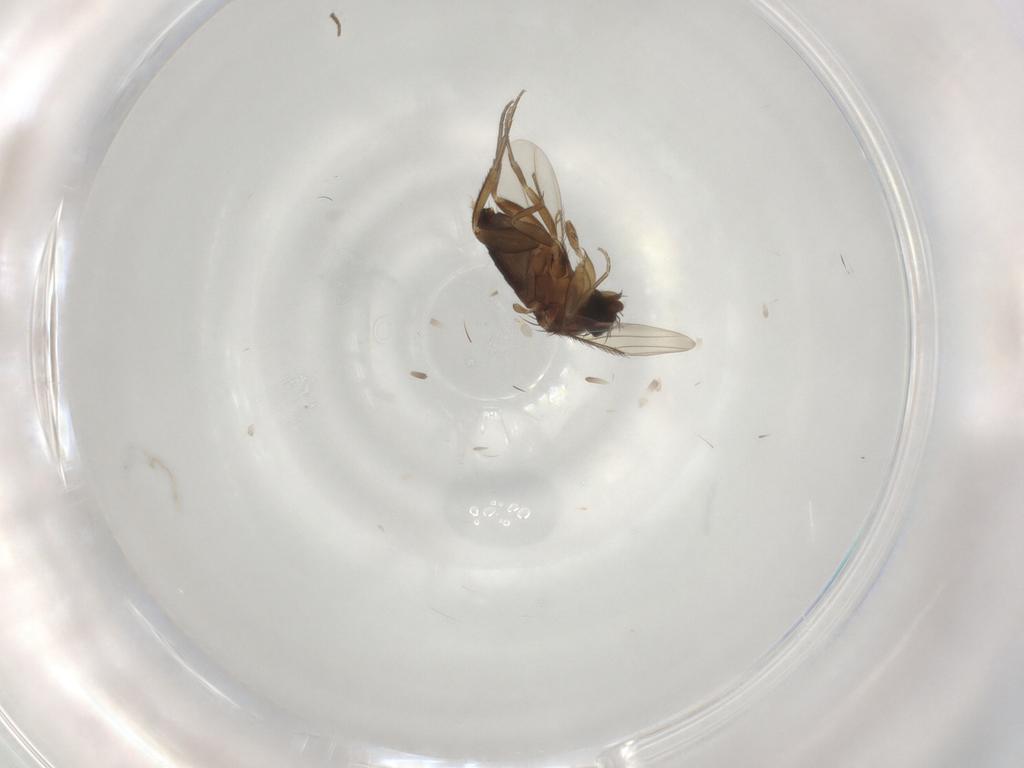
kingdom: Animalia
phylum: Arthropoda
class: Insecta
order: Diptera
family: Phoridae
